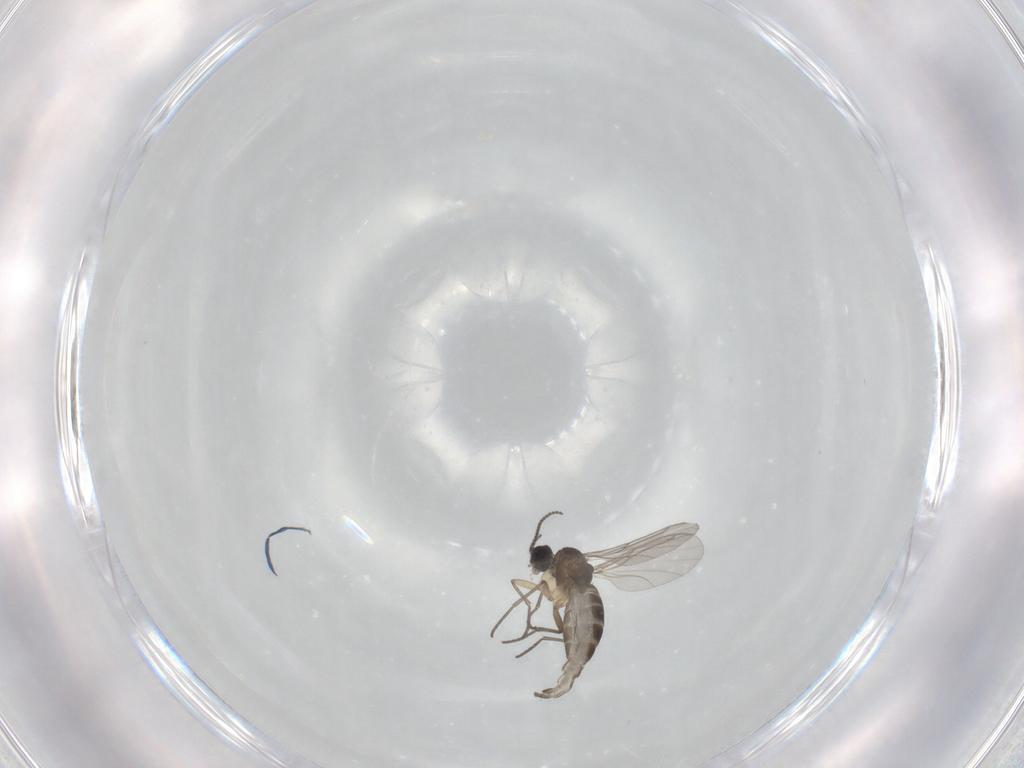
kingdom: Animalia
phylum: Arthropoda
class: Insecta
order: Diptera
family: Sciaridae
